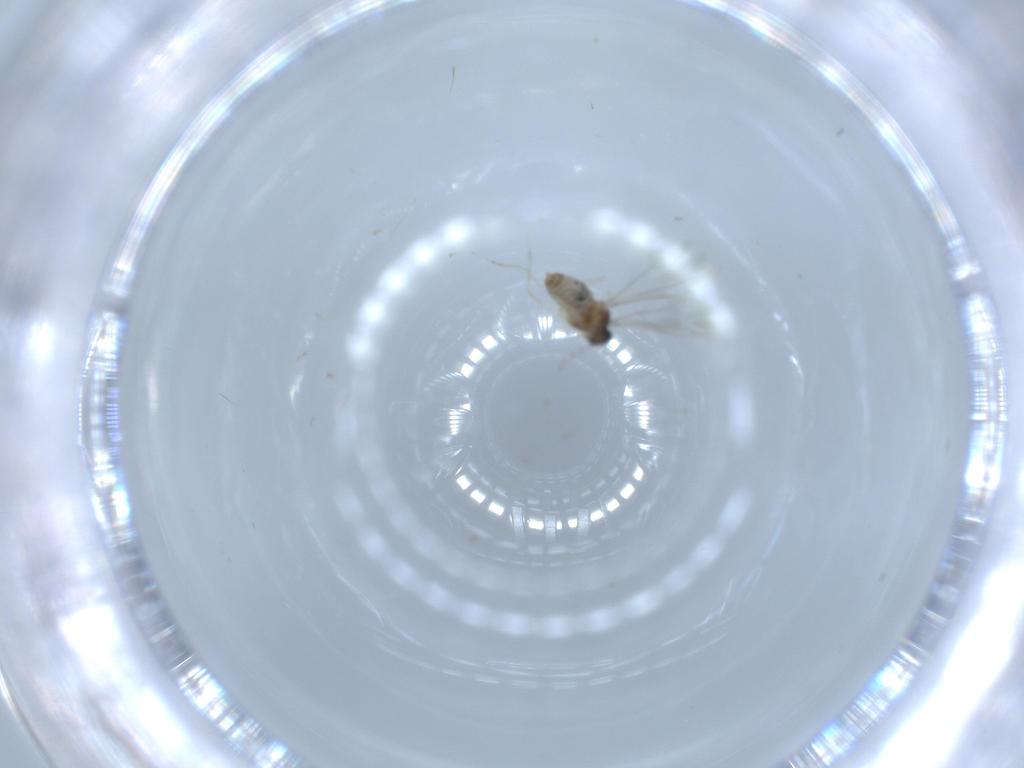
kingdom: Animalia
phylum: Arthropoda
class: Insecta
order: Diptera
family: Cecidomyiidae
